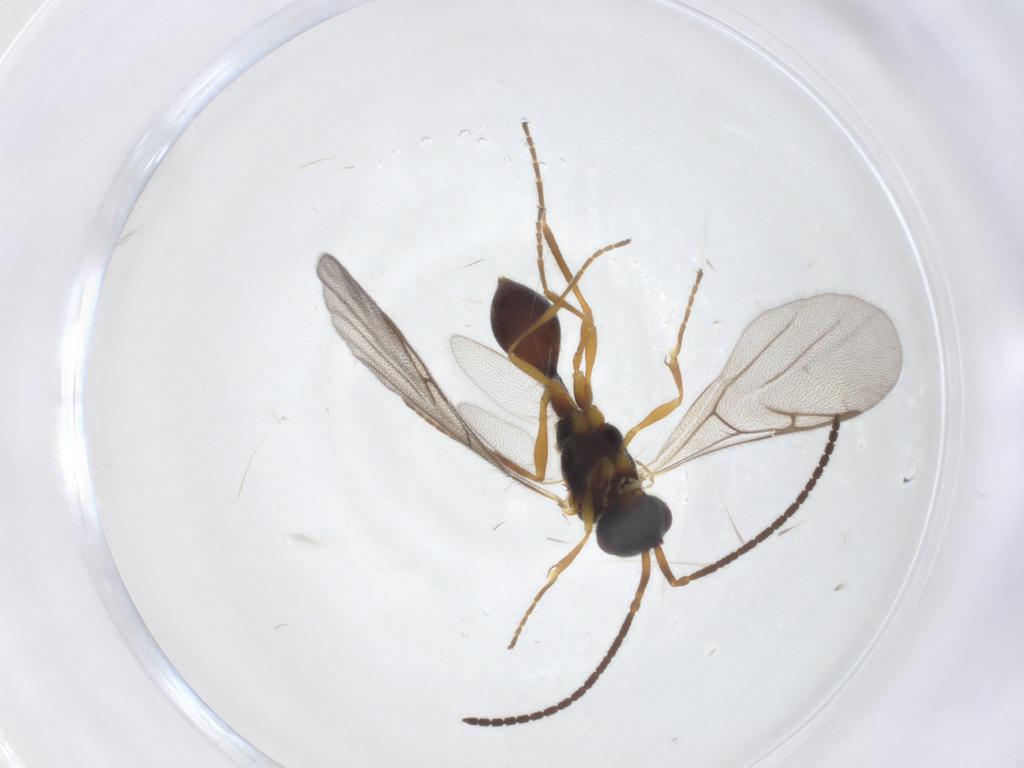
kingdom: Animalia
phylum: Arthropoda
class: Insecta
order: Hymenoptera
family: Diapriidae
